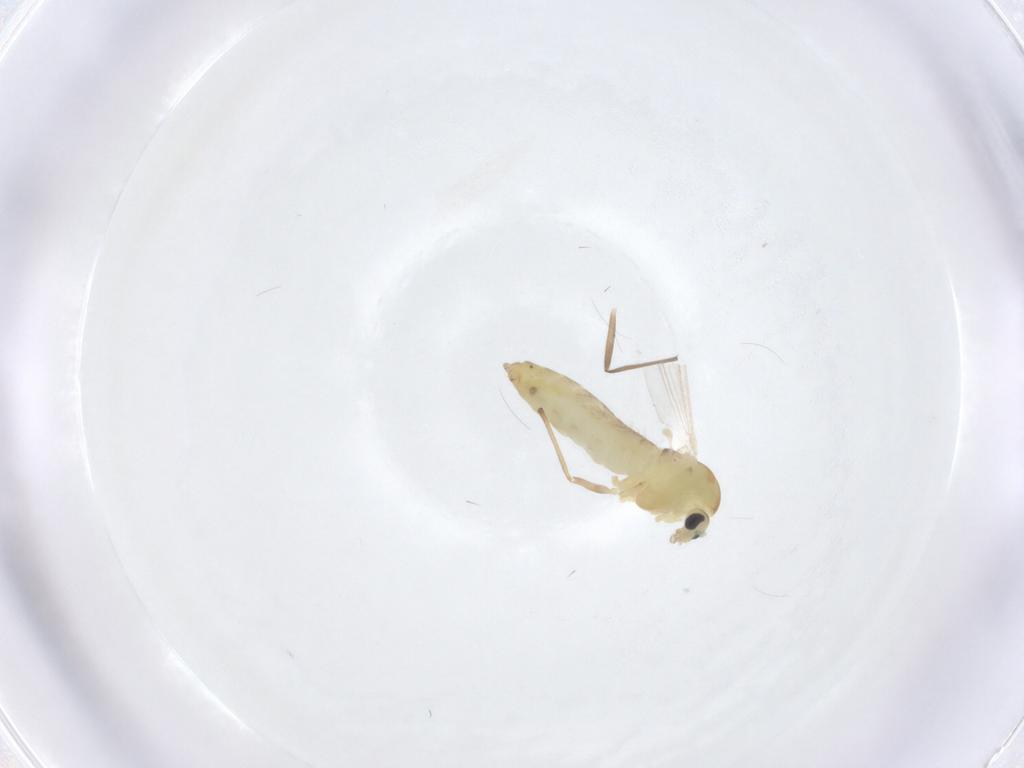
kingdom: Animalia
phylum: Arthropoda
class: Insecta
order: Diptera
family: Chironomidae
